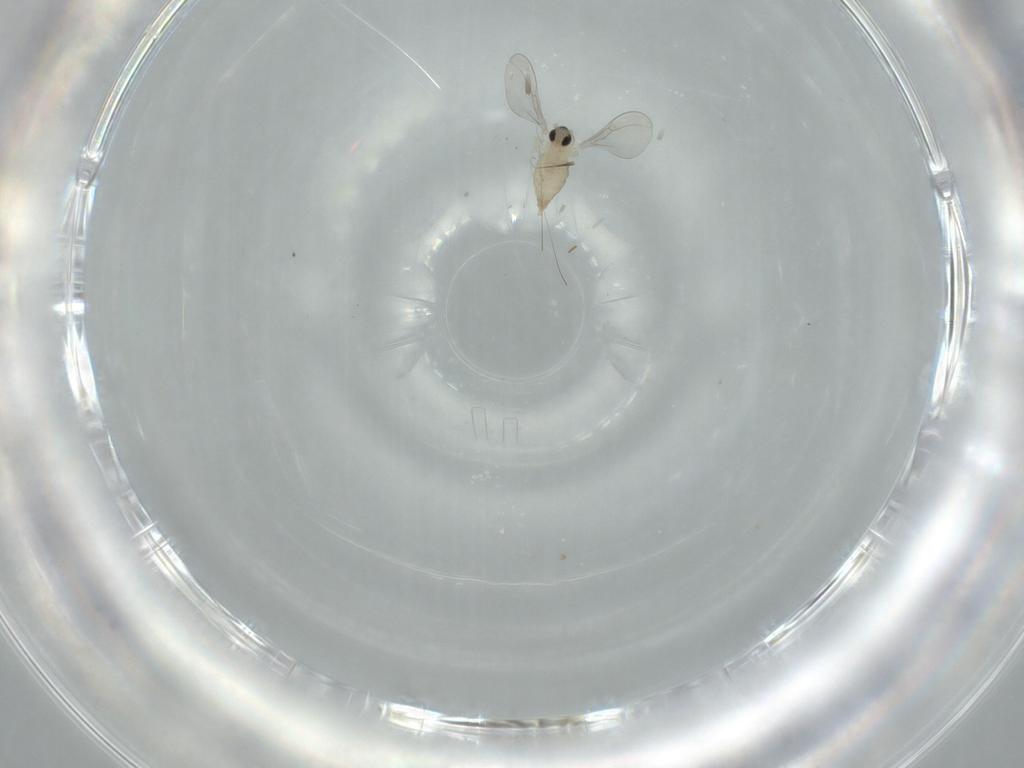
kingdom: Animalia
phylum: Arthropoda
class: Insecta
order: Diptera
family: Cecidomyiidae
